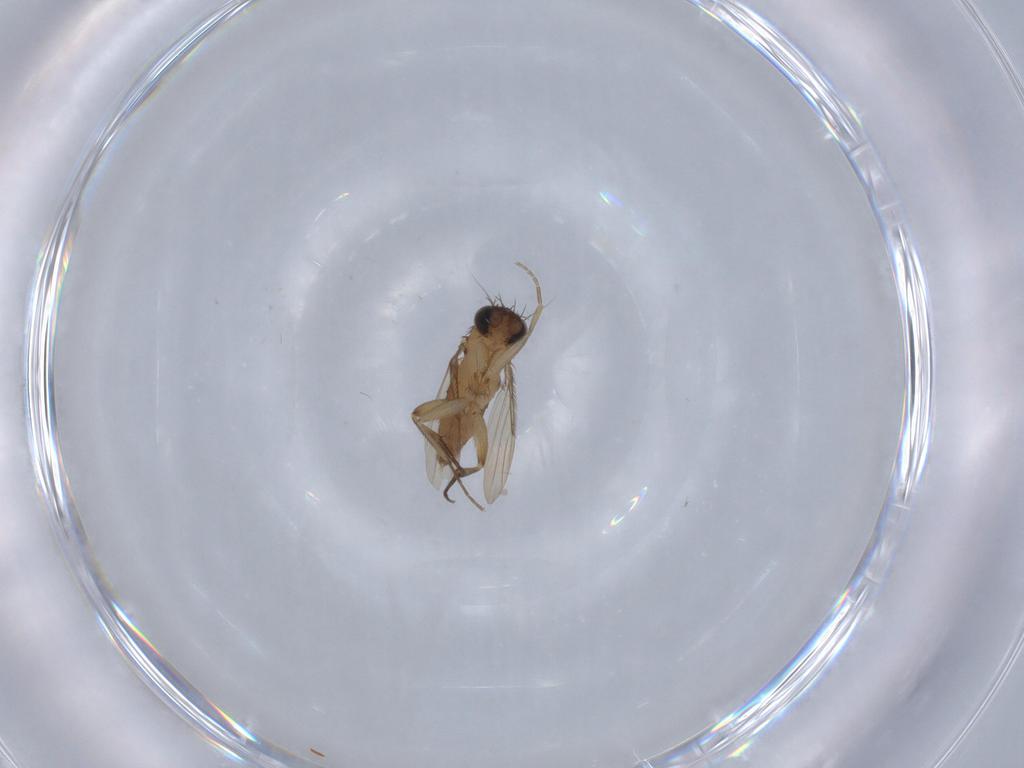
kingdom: Animalia
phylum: Arthropoda
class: Insecta
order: Diptera
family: Phoridae
